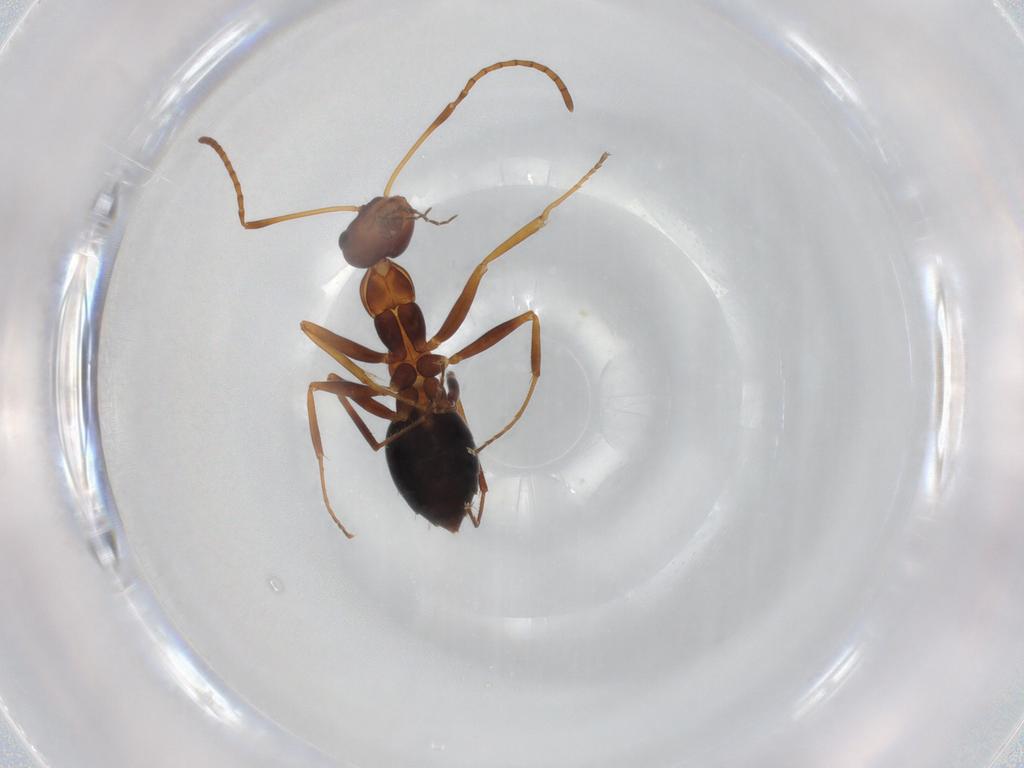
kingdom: Animalia
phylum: Arthropoda
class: Insecta
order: Hymenoptera
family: Formicidae
